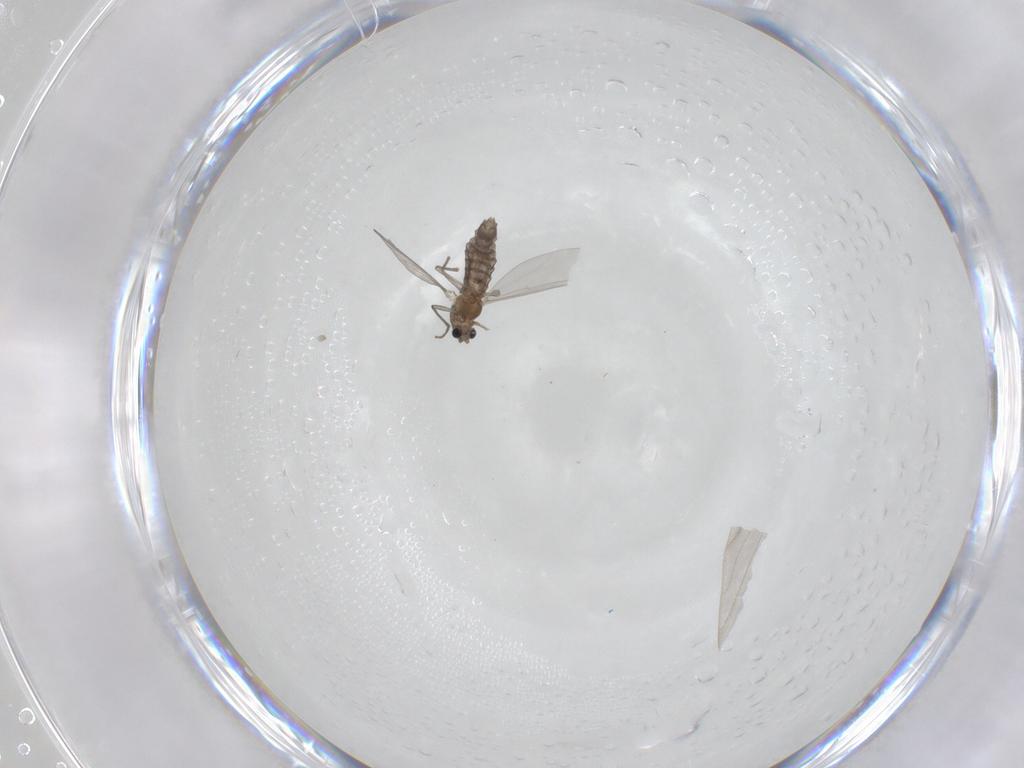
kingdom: Animalia
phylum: Arthropoda
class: Insecta
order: Diptera
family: Limoniidae
